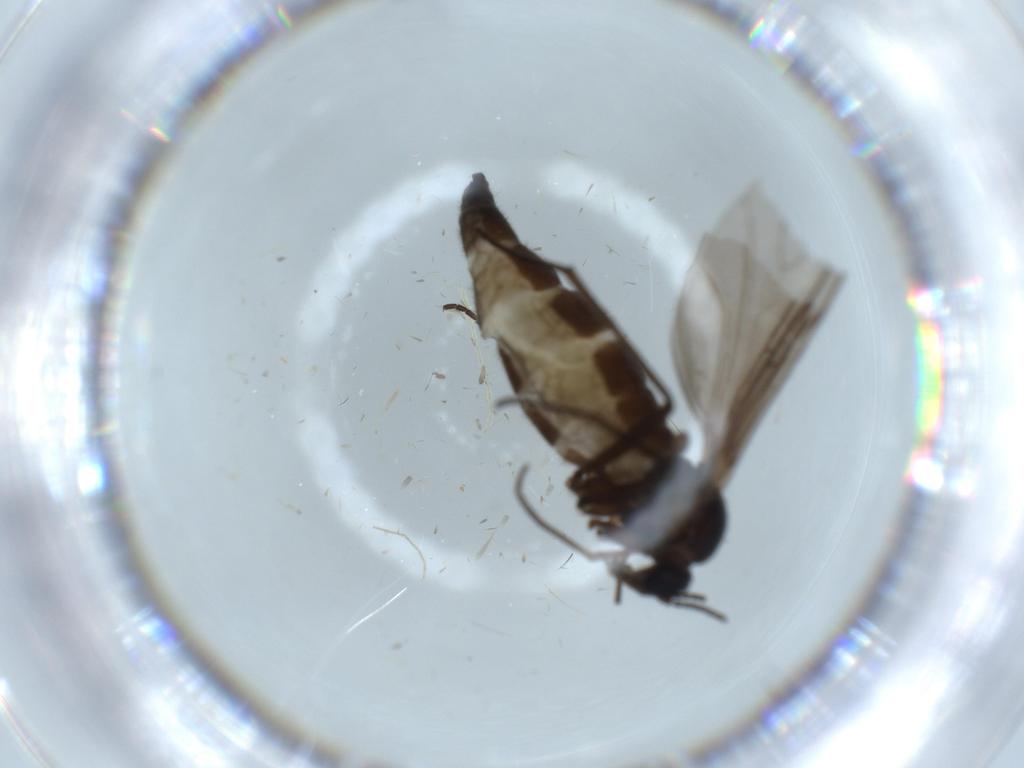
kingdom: Animalia
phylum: Arthropoda
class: Insecta
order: Diptera
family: Sciaridae
